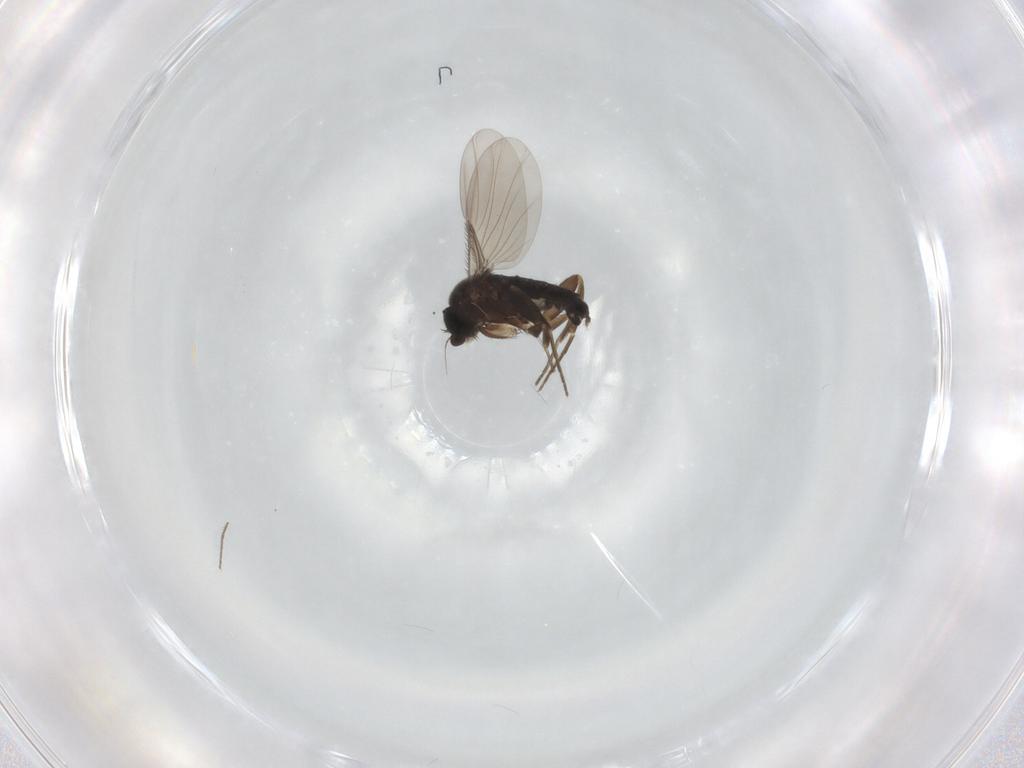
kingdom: Animalia
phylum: Arthropoda
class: Insecta
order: Diptera
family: Phoridae
